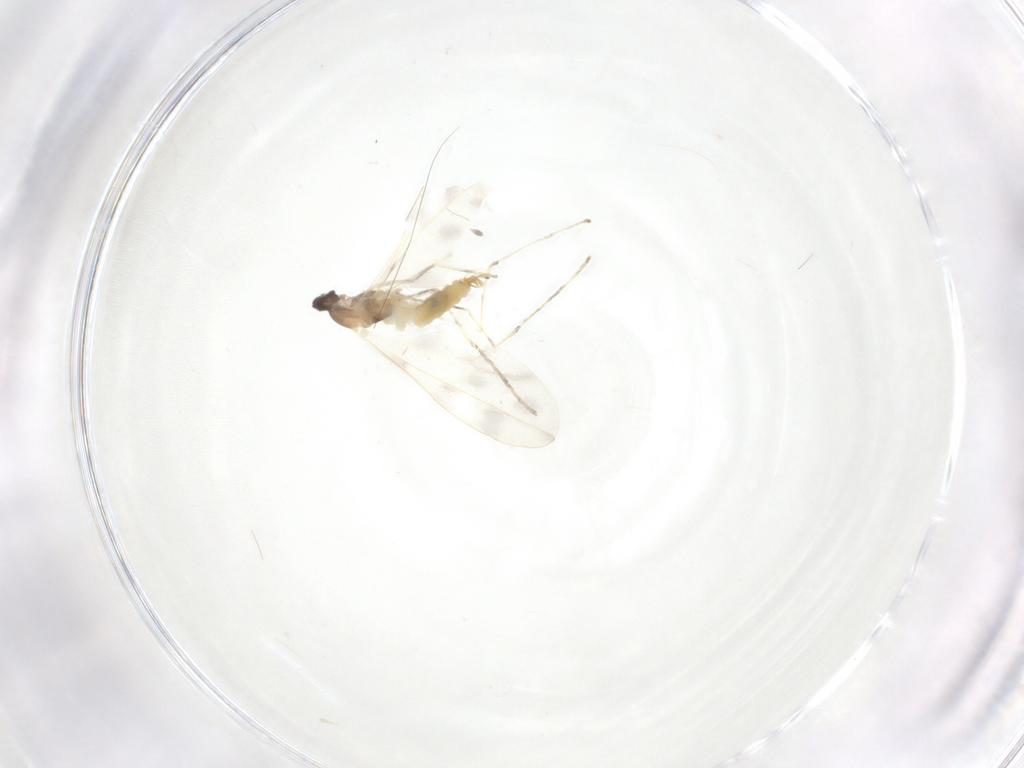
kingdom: Animalia
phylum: Arthropoda
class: Insecta
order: Diptera
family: Cecidomyiidae
